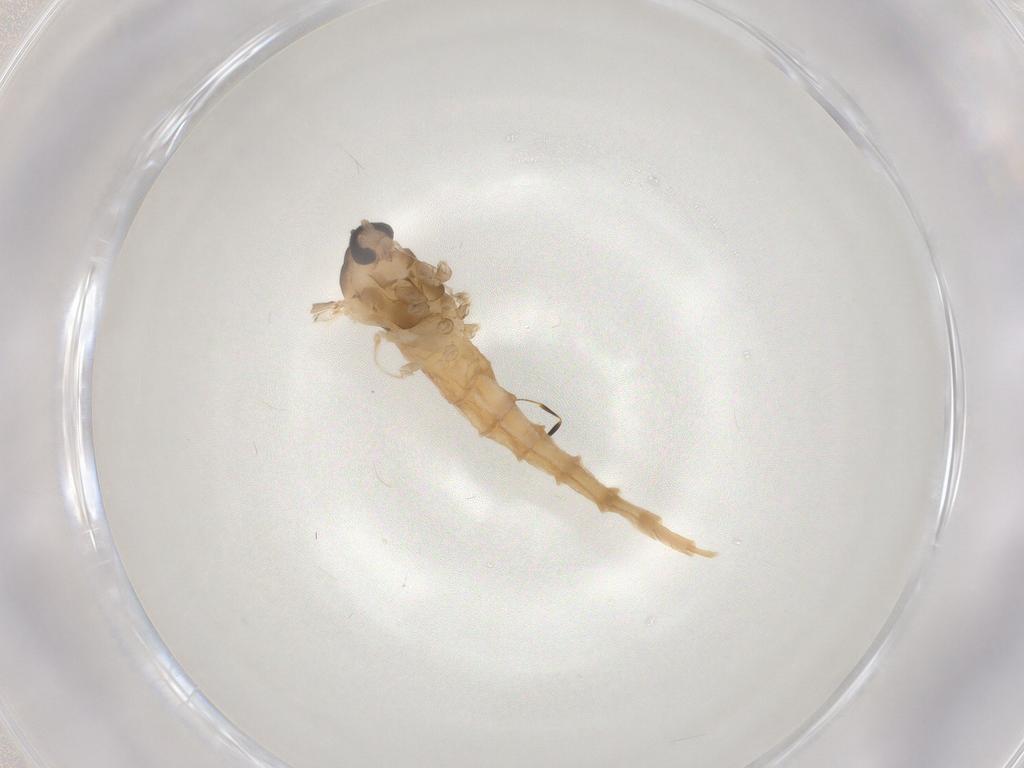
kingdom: Animalia
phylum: Arthropoda
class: Insecta
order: Diptera
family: Cecidomyiidae
